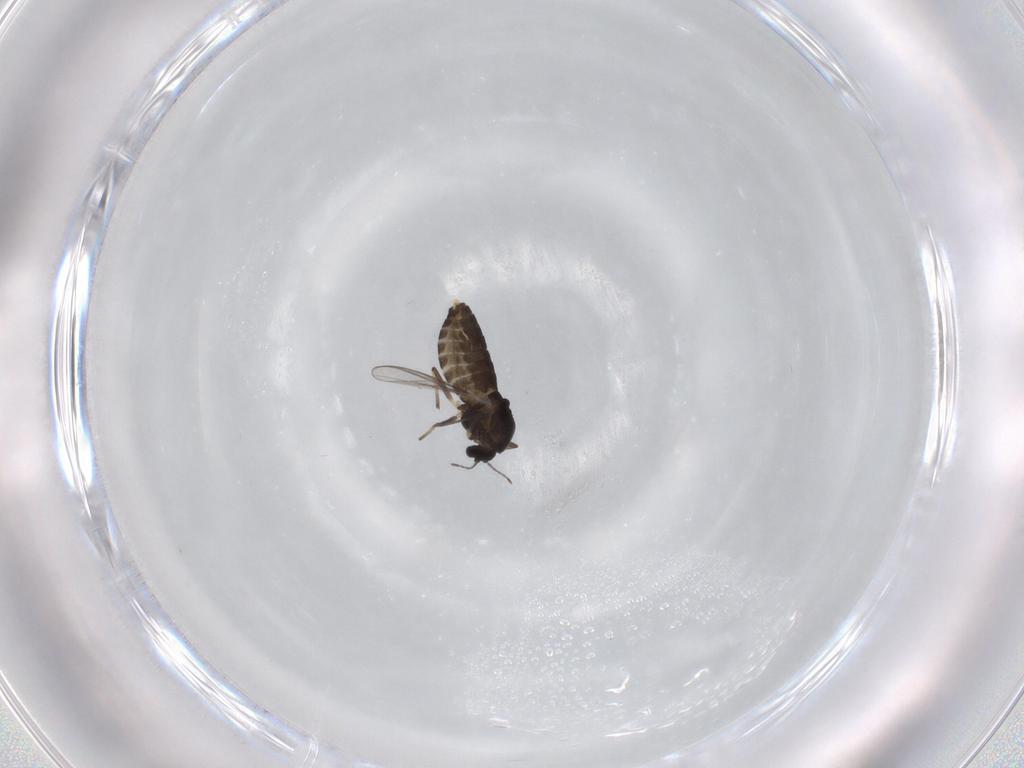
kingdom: Animalia
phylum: Arthropoda
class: Insecta
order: Diptera
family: Chironomidae
